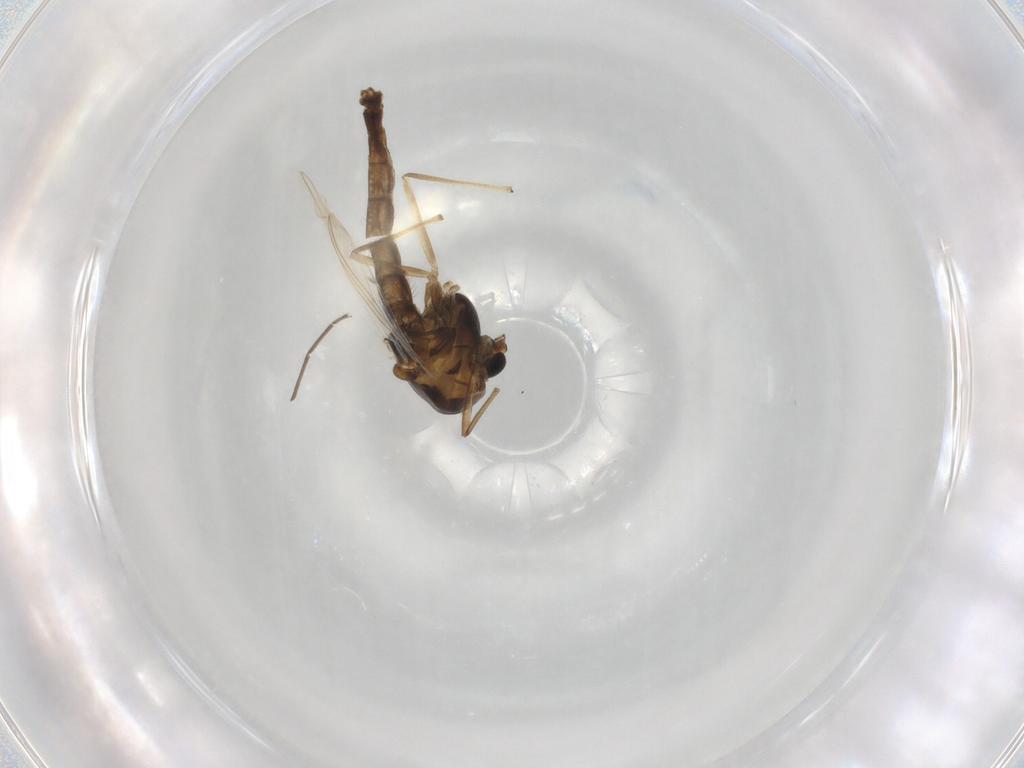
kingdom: Animalia
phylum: Arthropoda
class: Insecta
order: Diptera
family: Chironomidae
